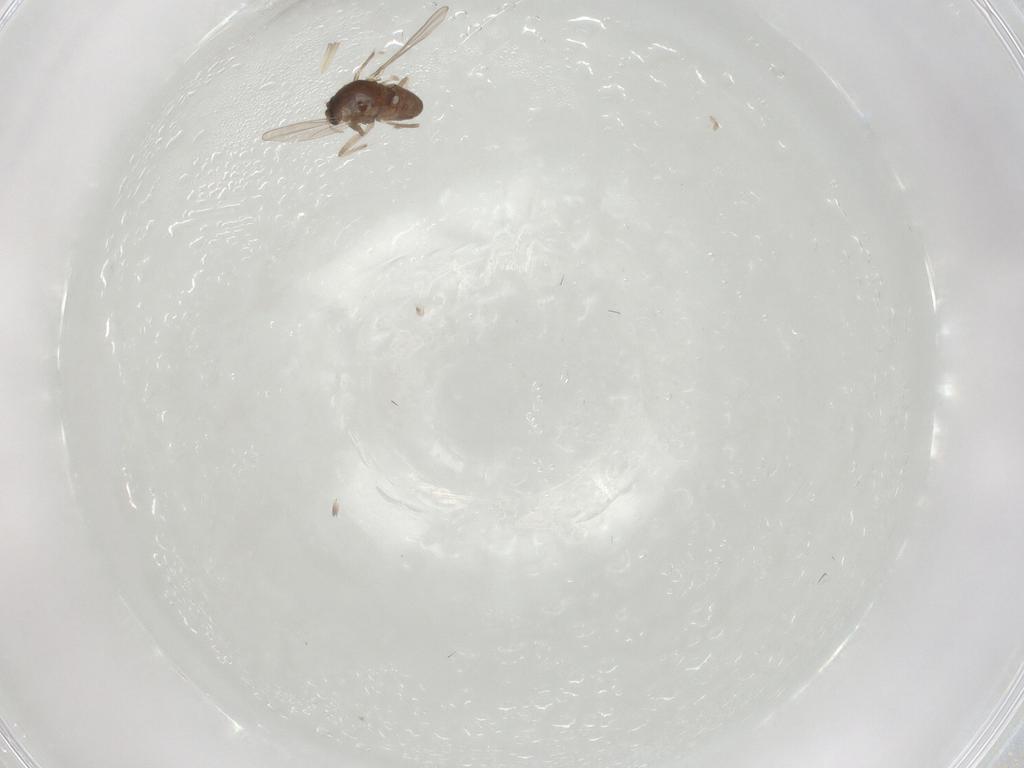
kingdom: Animalia
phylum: Arthropoda
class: Insecta
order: Diptera
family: Chironomidae
